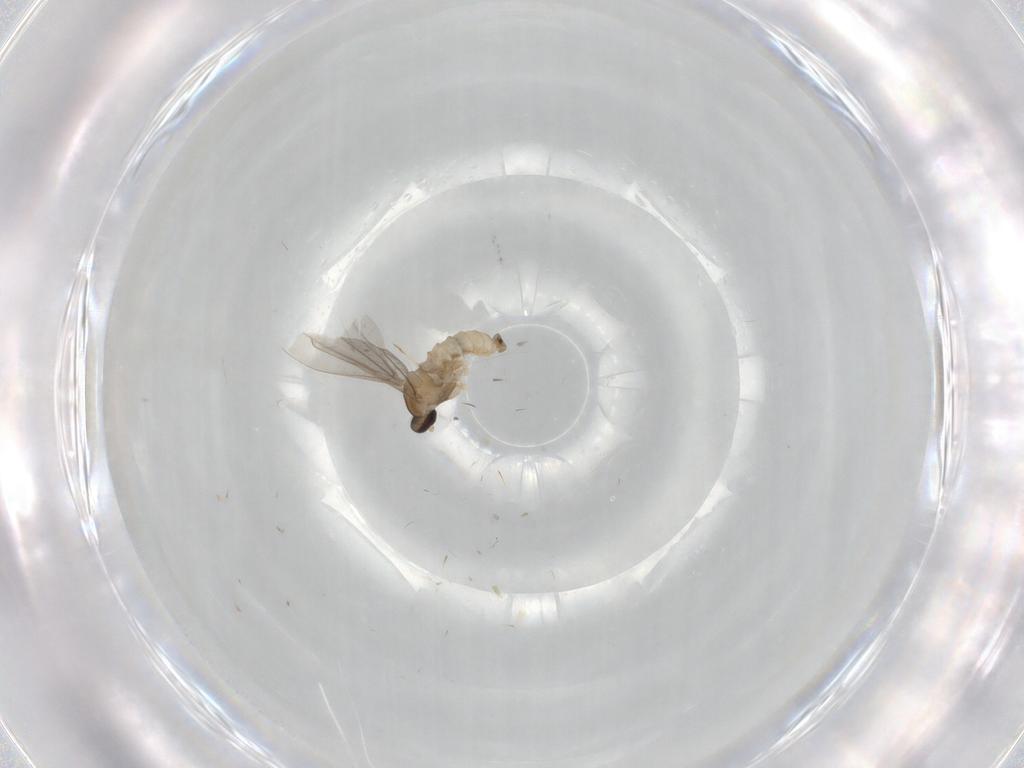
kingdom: Animalia
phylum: Arthropoda
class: Insecta
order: Diptera
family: Cecidomyiidae
